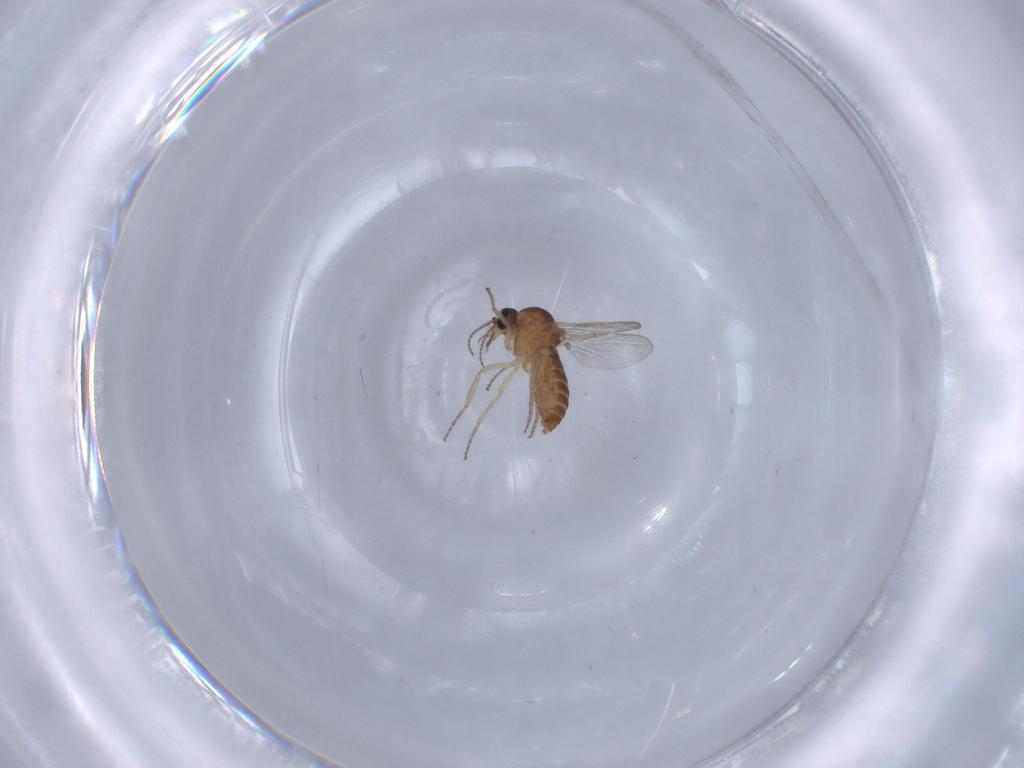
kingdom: Animalia
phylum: Arthropoda
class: Insecta
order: Diptera
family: Ceratopogonidae
